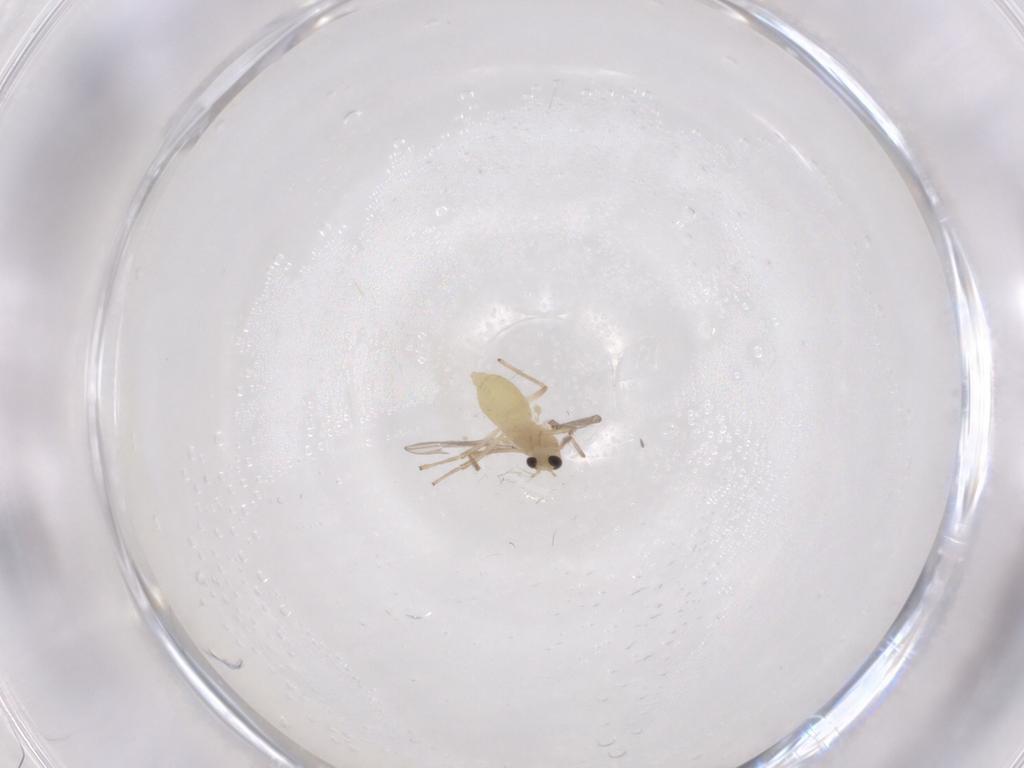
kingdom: Animalia
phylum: Arthropoda
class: Insecta
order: Diptera
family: Chironomidae
